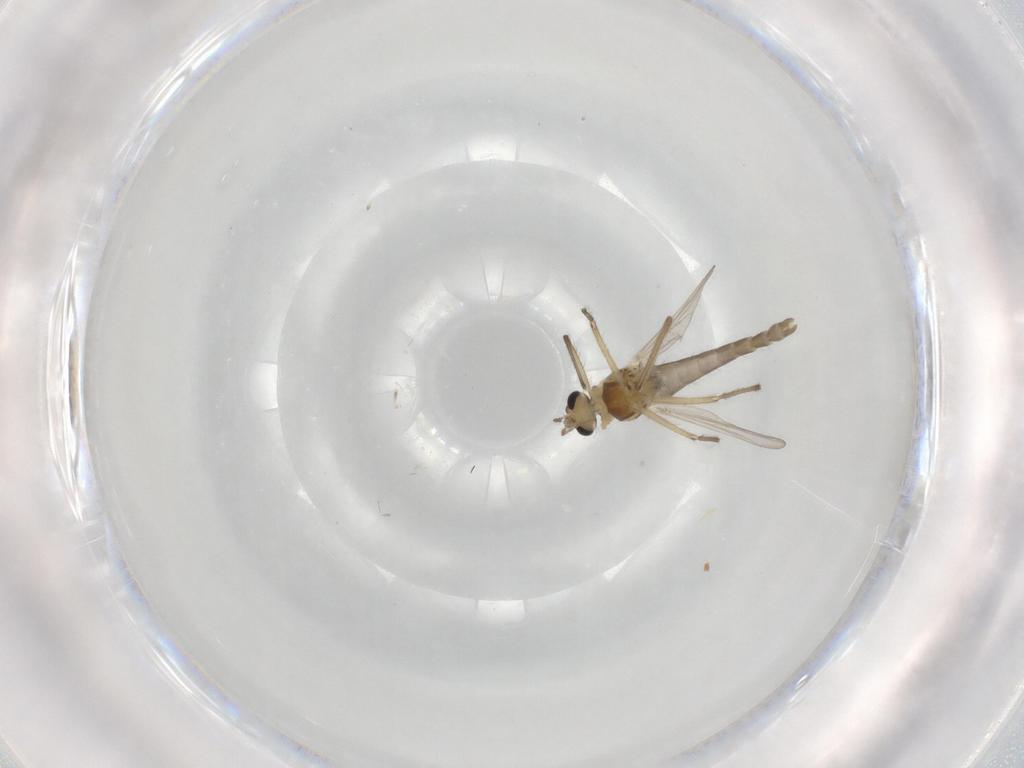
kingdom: Animalia
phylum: Arthropoda
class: Insecta
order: Diptera
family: Chironomidae
